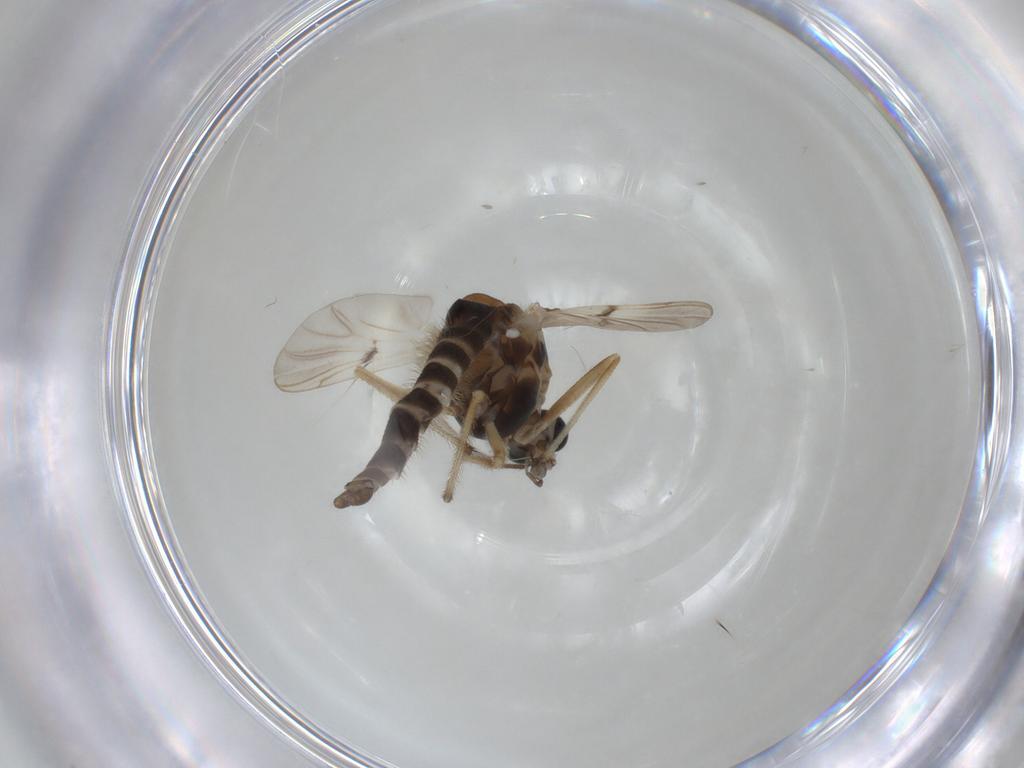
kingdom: Animalia
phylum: Arthropoda
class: Insecta
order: Diptera
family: Chironomidae
